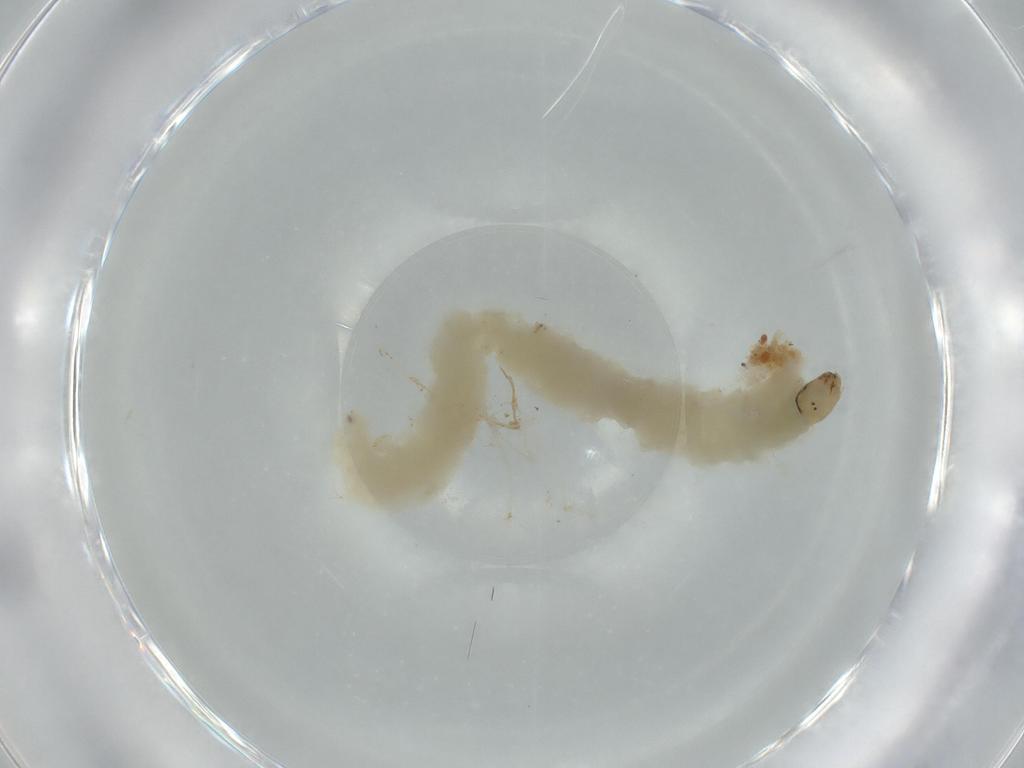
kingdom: Animalia
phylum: Arthropoda
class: Insecta
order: Diptera
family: Chironomidae
